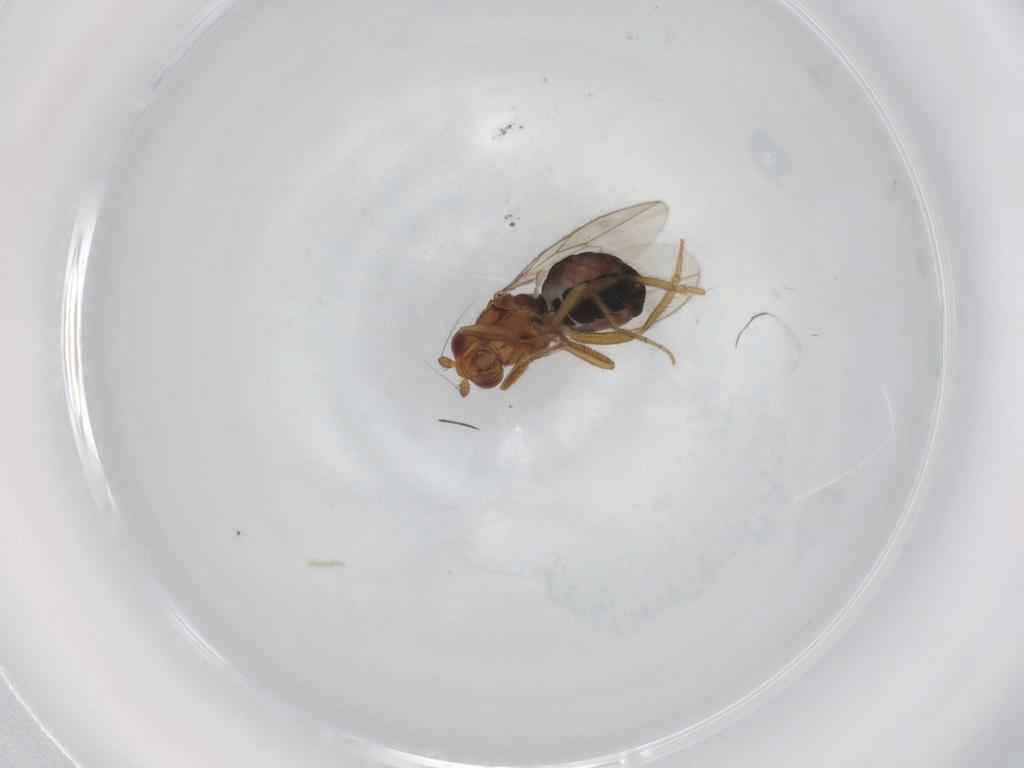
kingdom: Animalia
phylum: Arthropoda
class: Insecta
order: Diptera
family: Sphaeroceridae
